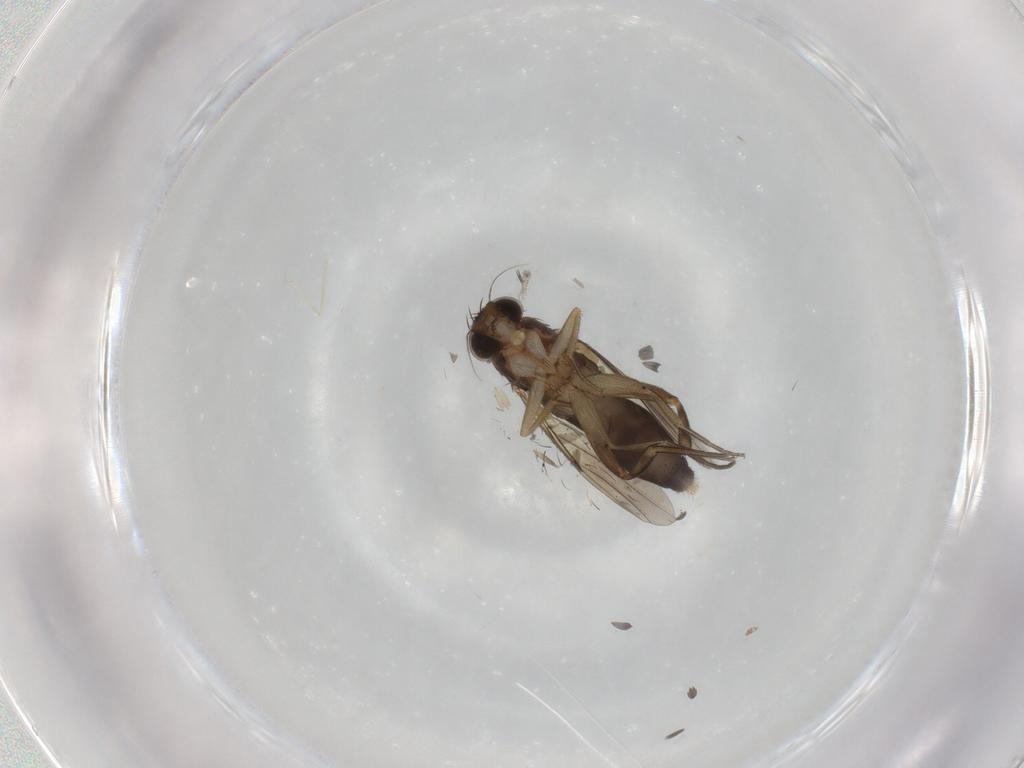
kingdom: Animalia
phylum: Arthropoda
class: Insecta
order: Diptera
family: Phoridae
